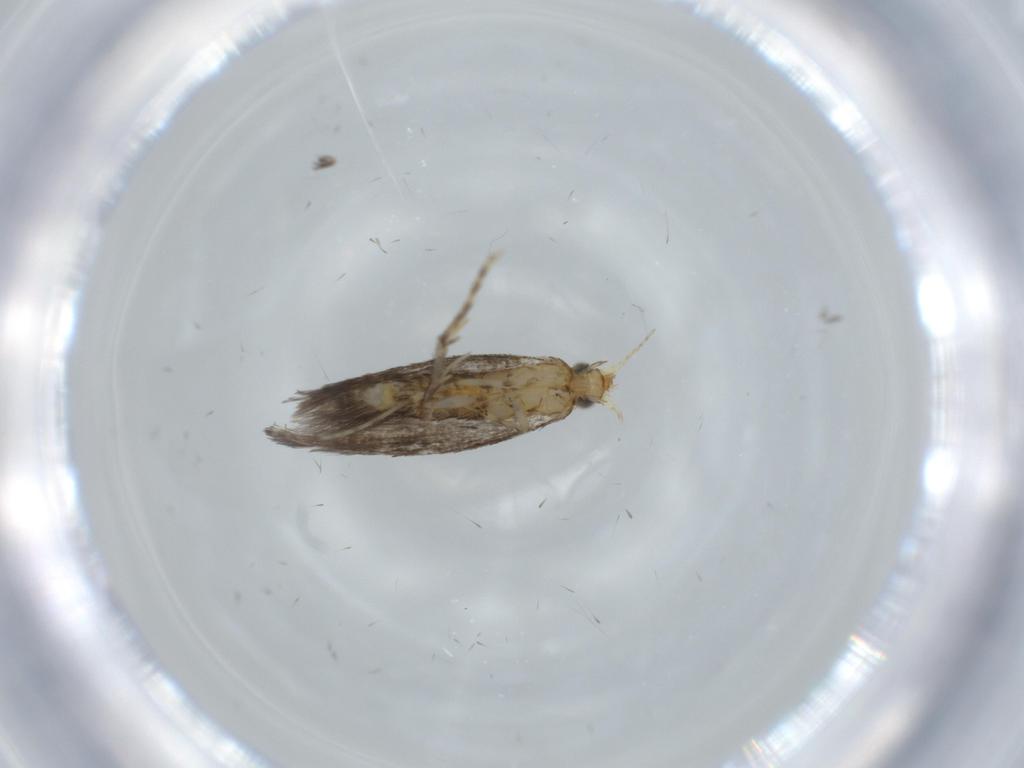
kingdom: Animalia
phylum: Arthropoda
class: Insecta
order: Lepidoptera
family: Argyresthiidae
